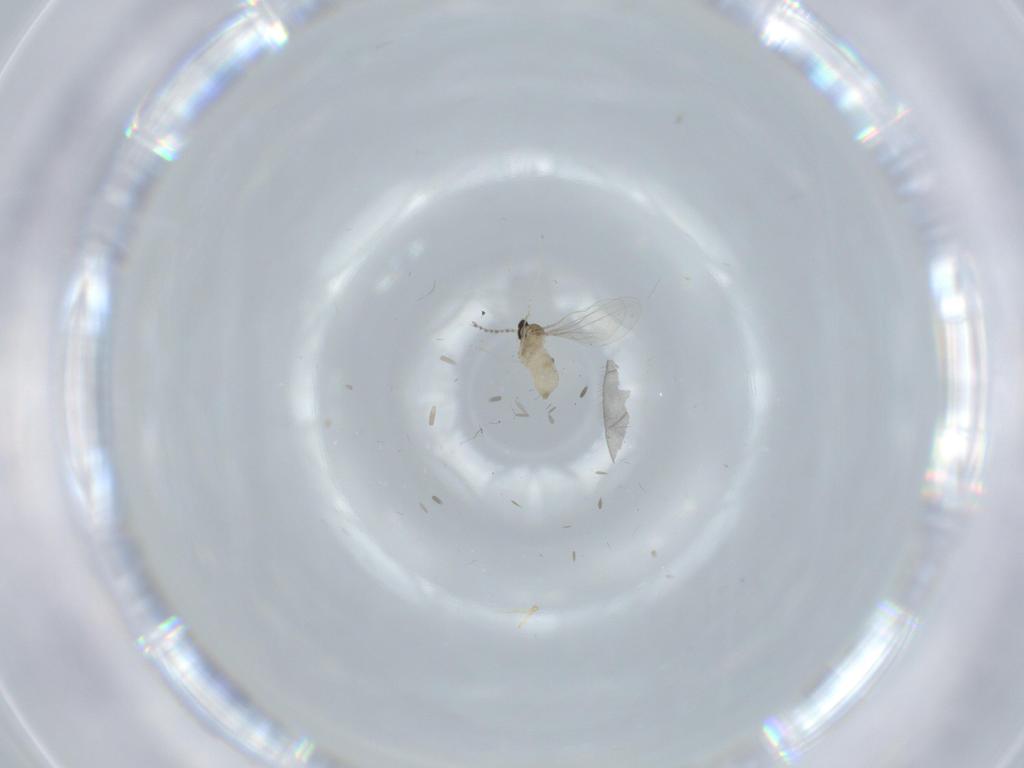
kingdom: Animalia
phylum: Arthropoda
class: Insecta
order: Diptera
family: Cecidomyiidae
